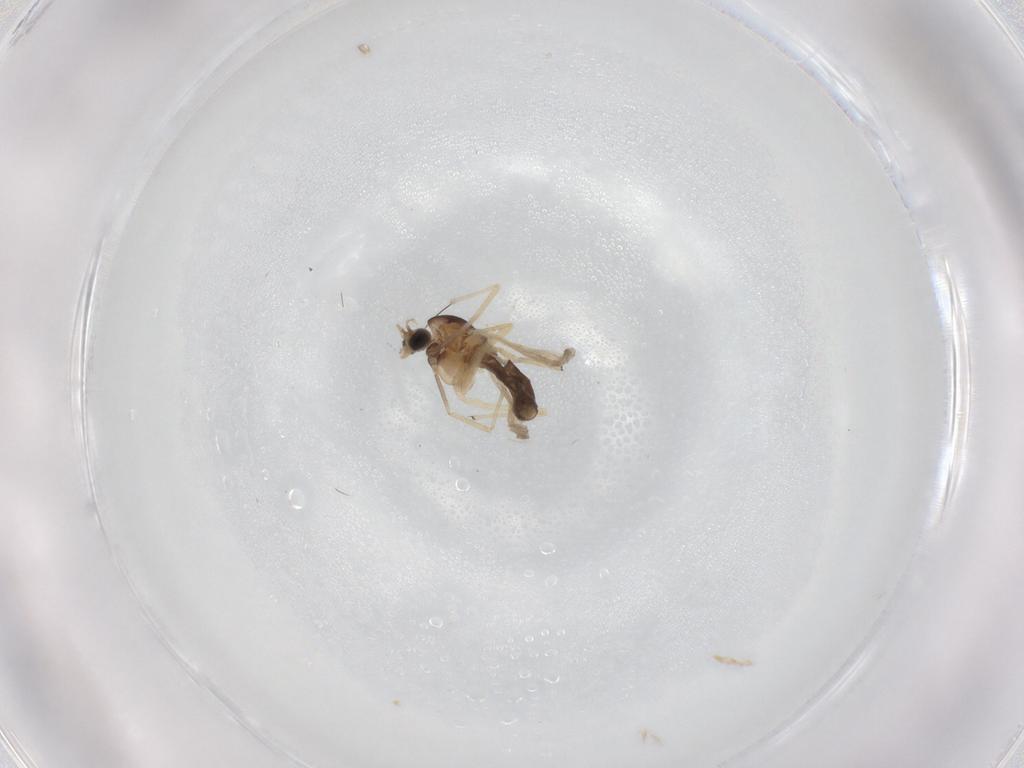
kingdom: Animalia
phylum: Arthropoda
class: Insecta
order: Diptera
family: Chironomidae
